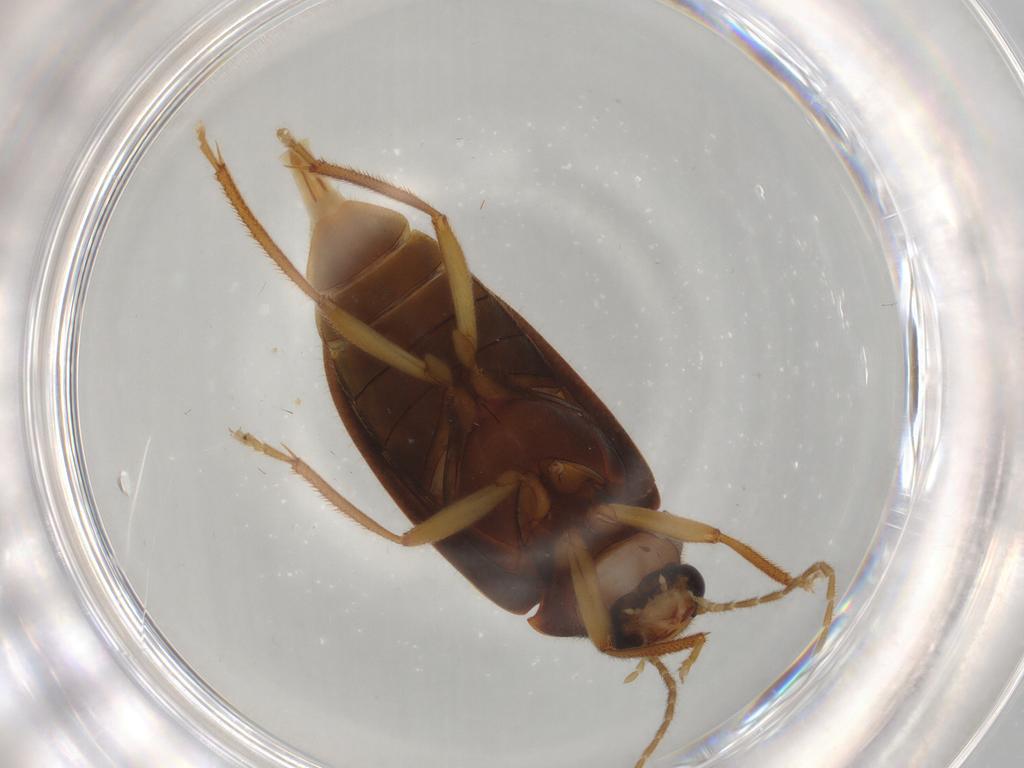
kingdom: Animalia
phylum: Arthropoda
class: Insecta
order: Coleoptera
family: Ptilodactylidae
